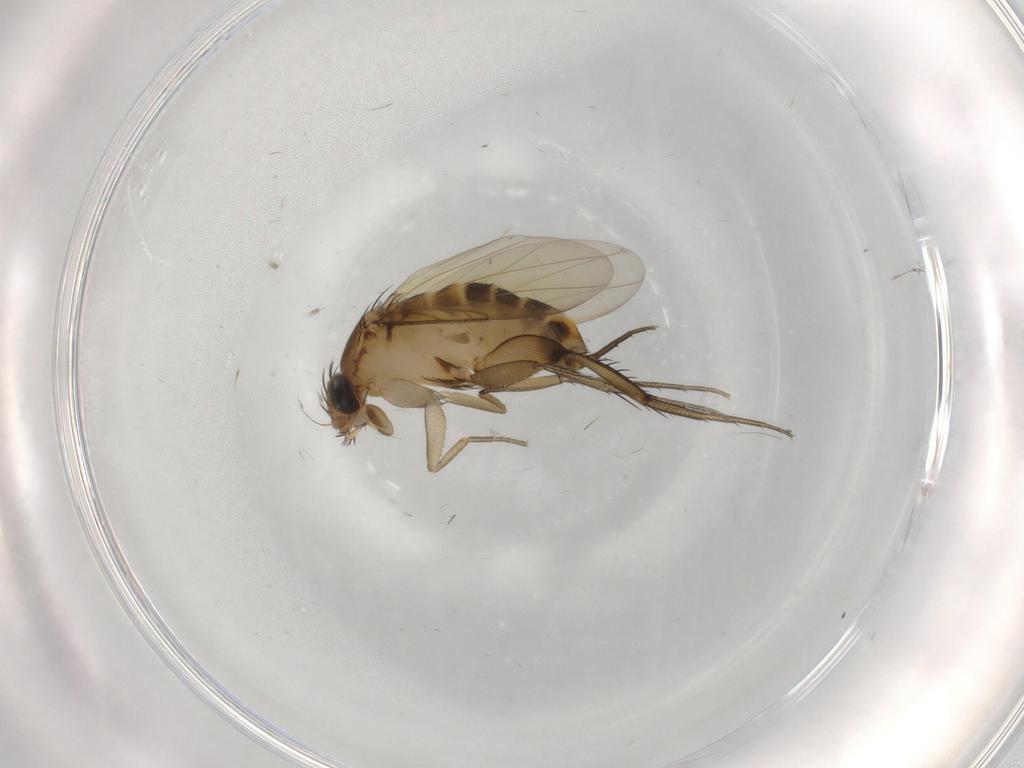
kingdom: Animalia
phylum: Arthropoda
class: Insecta
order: Diptera
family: Phoridae
